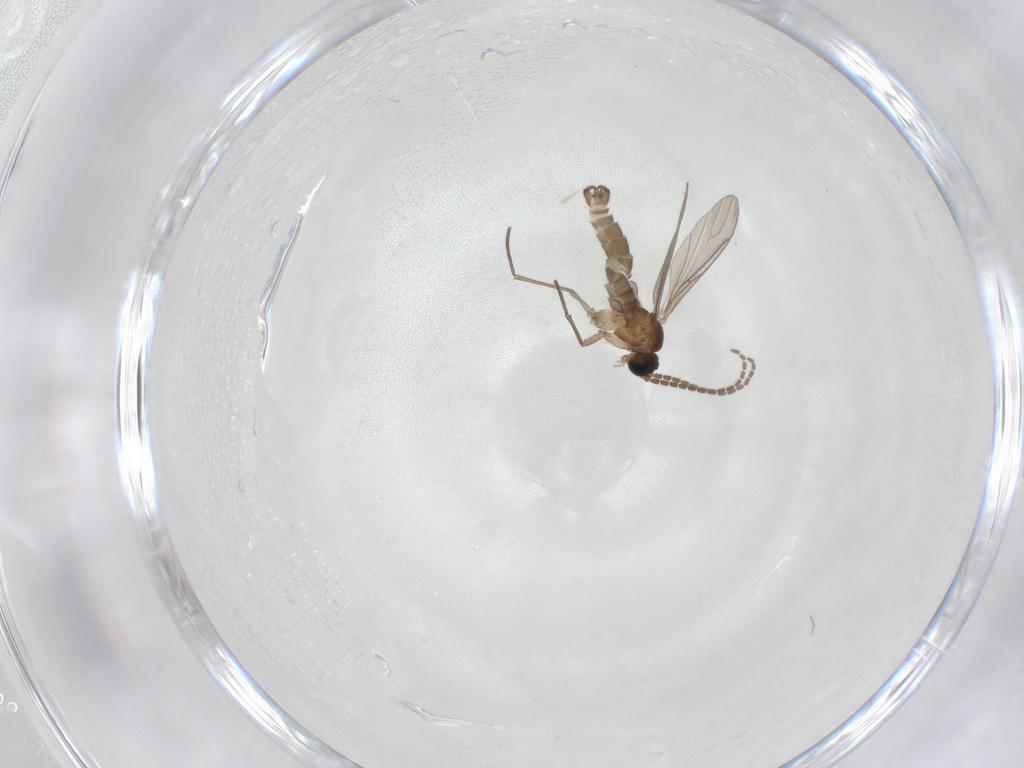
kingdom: Animalia
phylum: Arthropoda
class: Insecta
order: Diptera
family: Sciaridae
